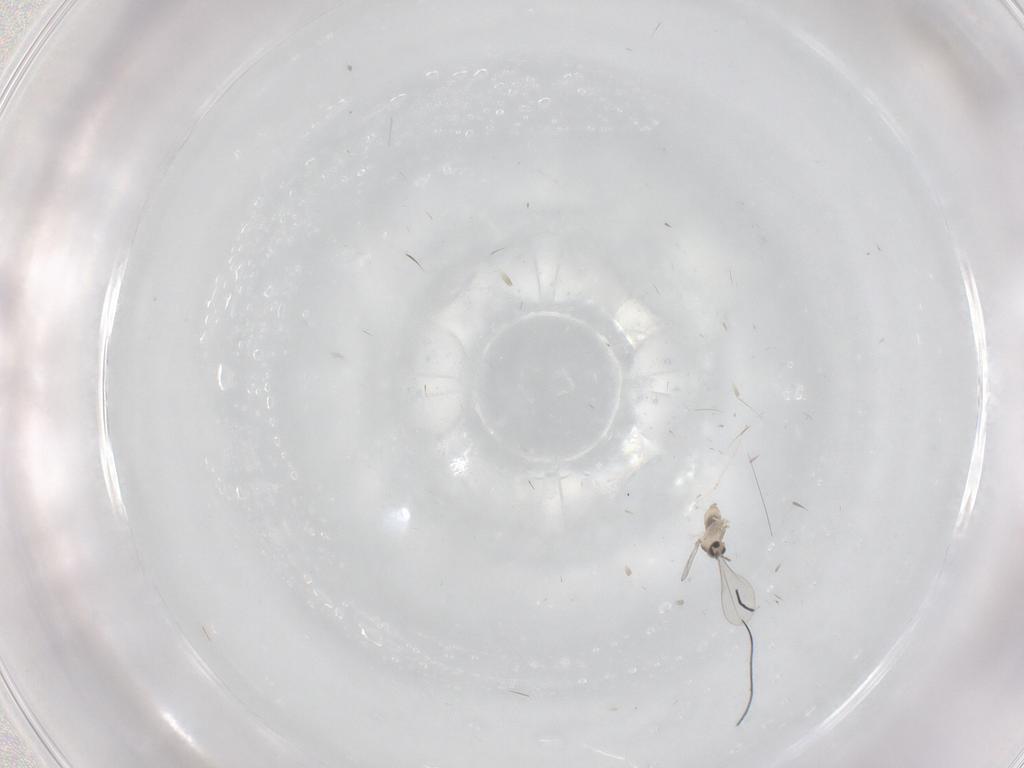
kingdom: Animalia
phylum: Arthropoda
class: Insecta
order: Diptera
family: Cecidomyiidae
